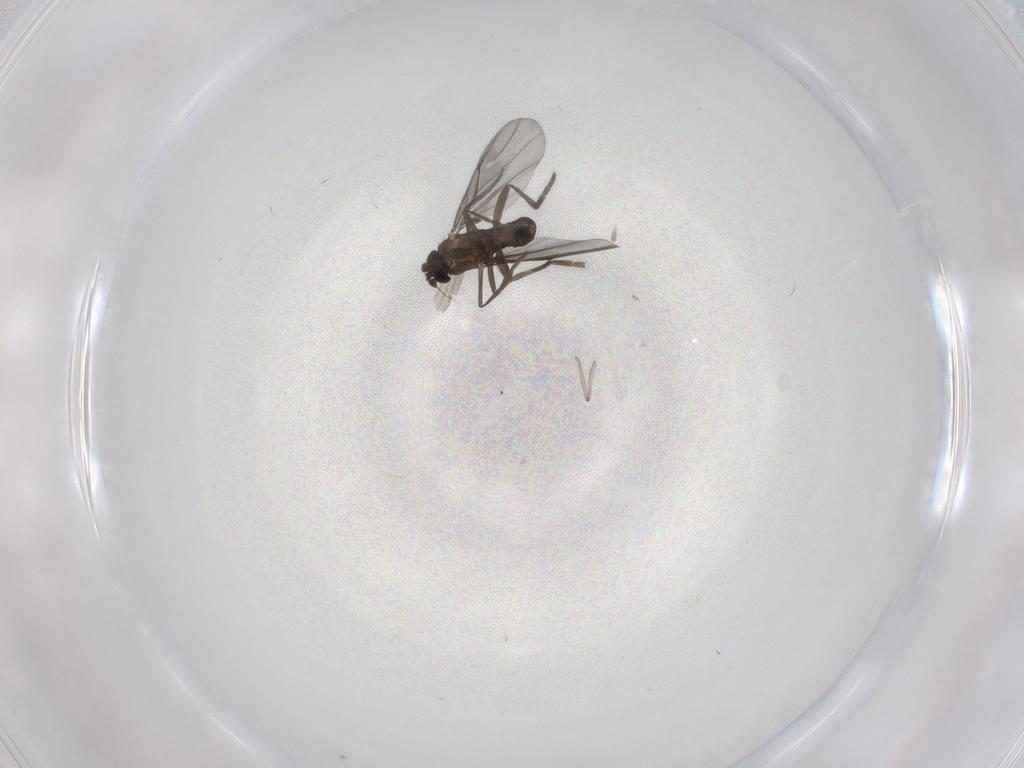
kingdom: Animalia
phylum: Arthropoda
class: Insecta
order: Diptera
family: Phoridae
